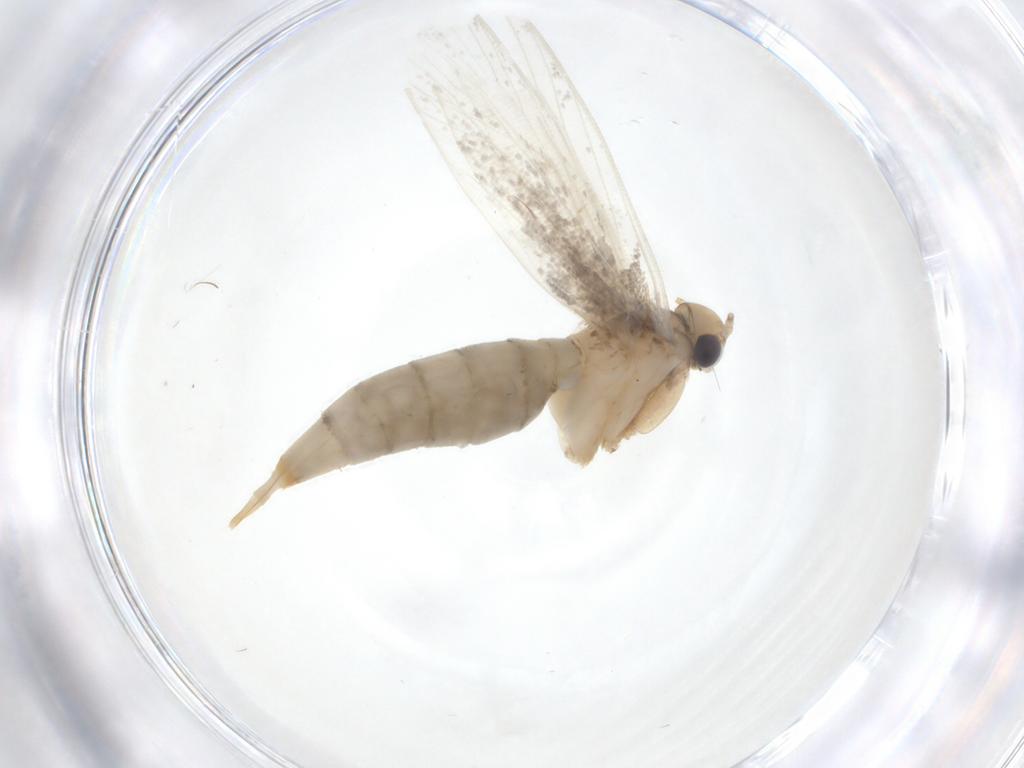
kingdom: Animalia
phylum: Arthropoda
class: Insecta
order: Lepidoptera
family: Tineidae
